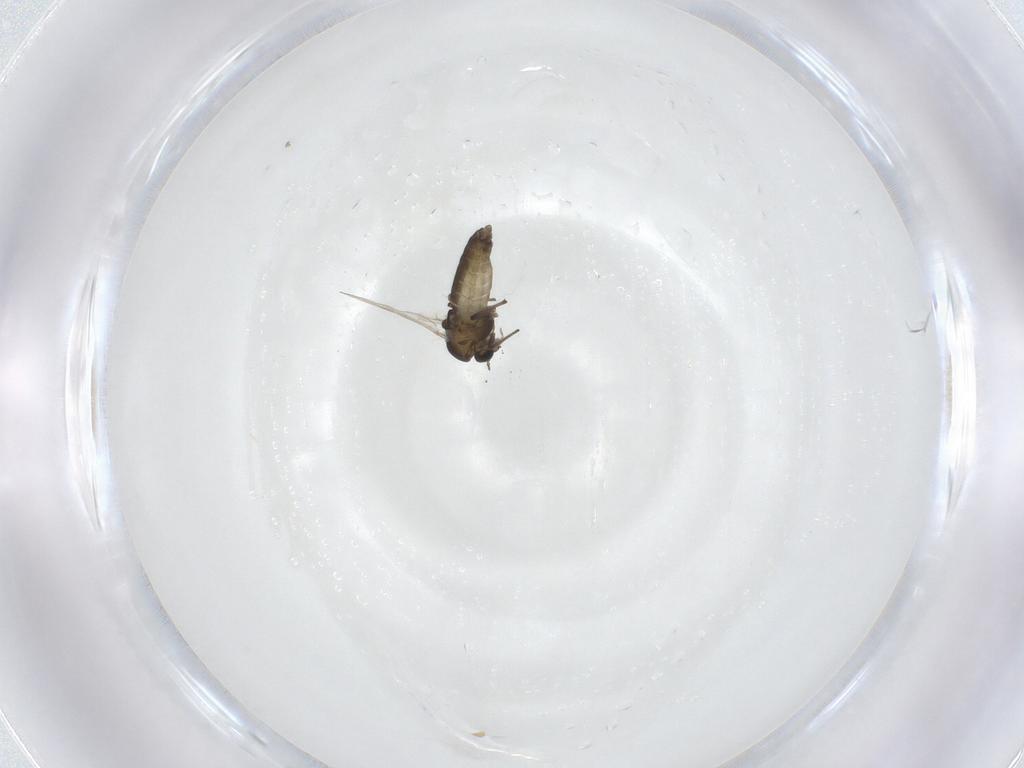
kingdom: Animalia
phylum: Arthropoda
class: Insecta
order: Diptera
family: Chironomidae
